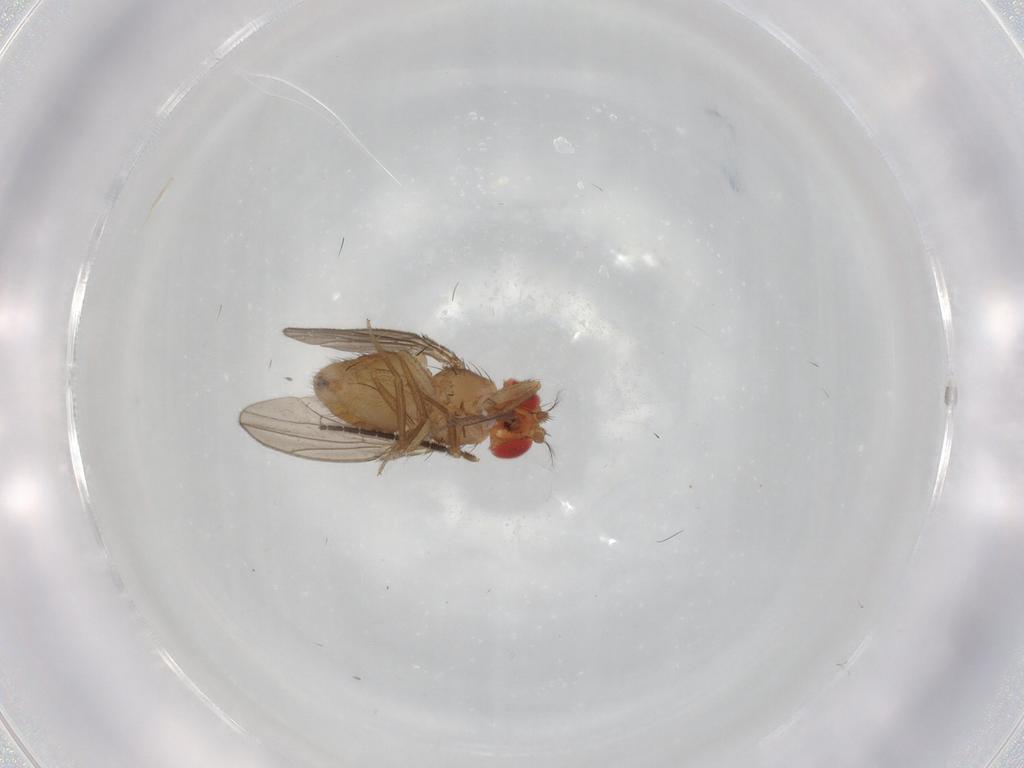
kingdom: Animalia
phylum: Arthropoda
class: Insecta
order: Diptera
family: Drosophilidae
